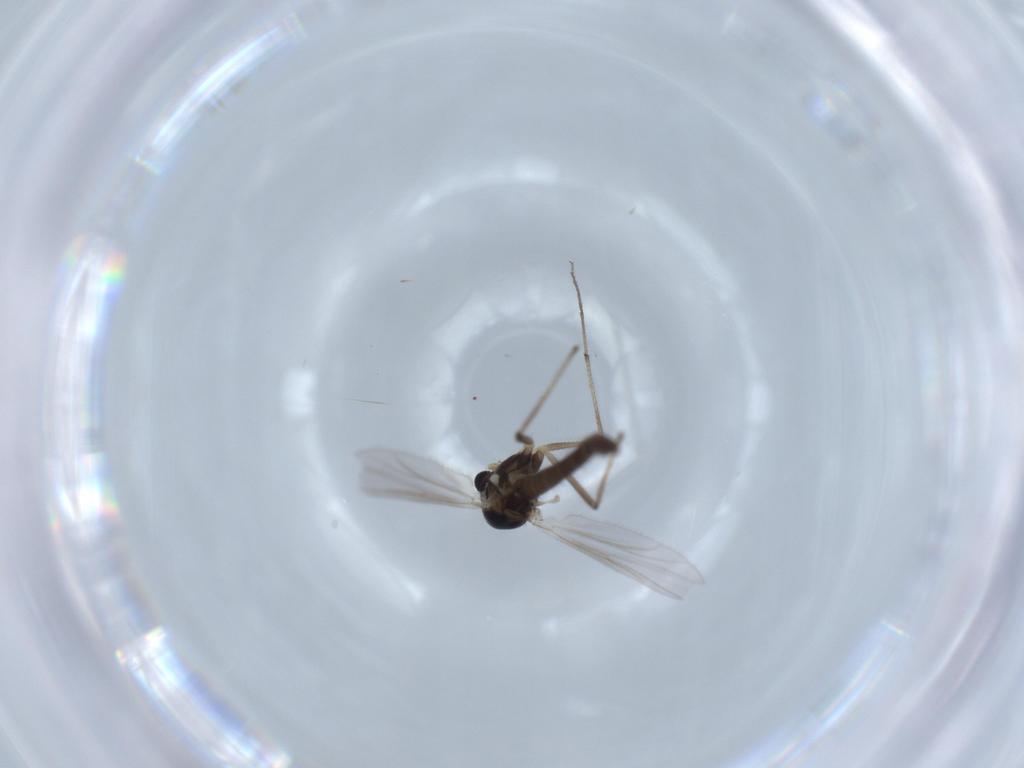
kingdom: Animalia
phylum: Arthropoda
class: Insecta
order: Diptera
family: Chironomidae
